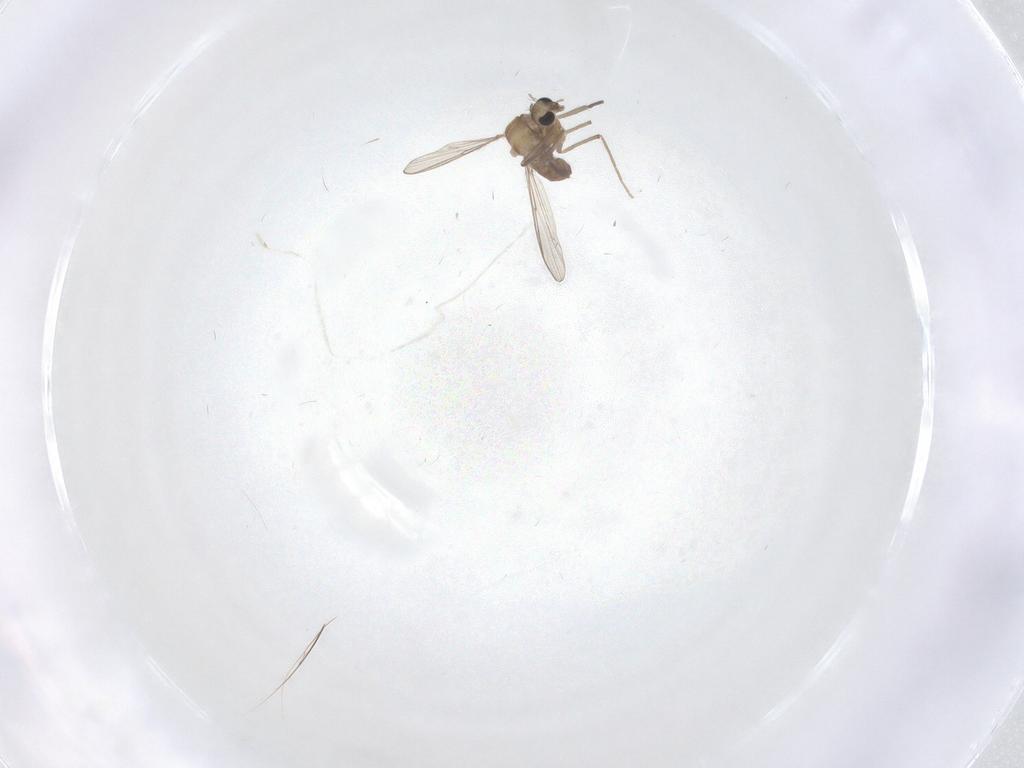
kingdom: Animalia
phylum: Arthropoda
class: Insecta
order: Diptera
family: Chironomidae
